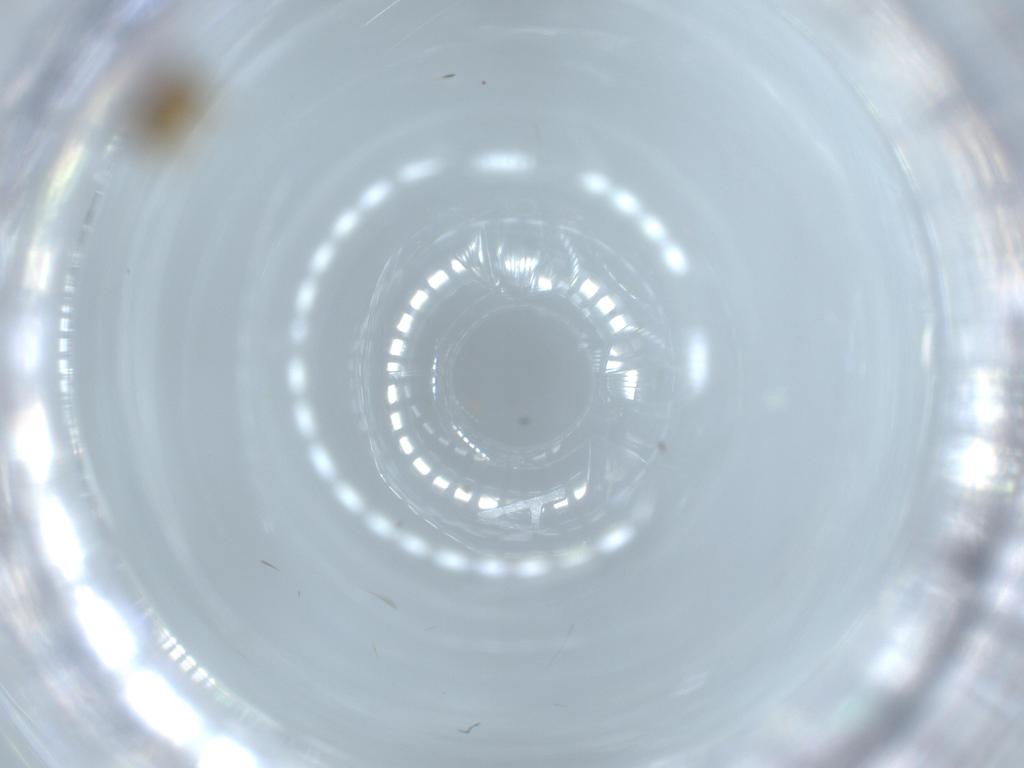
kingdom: Animalia
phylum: Arthropoda
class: Insecta
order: Hymenoptera
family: Torymidae
